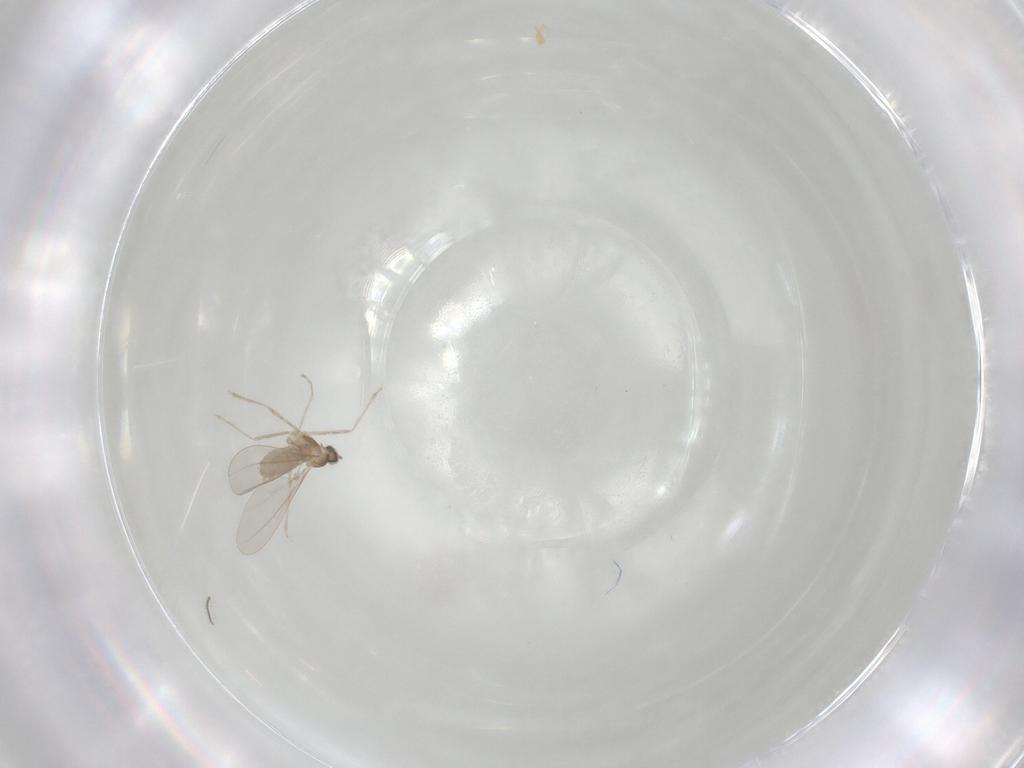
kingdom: Animalia
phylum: Arthropoda
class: Insecta
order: Diptera
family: Cecidomyiidae
